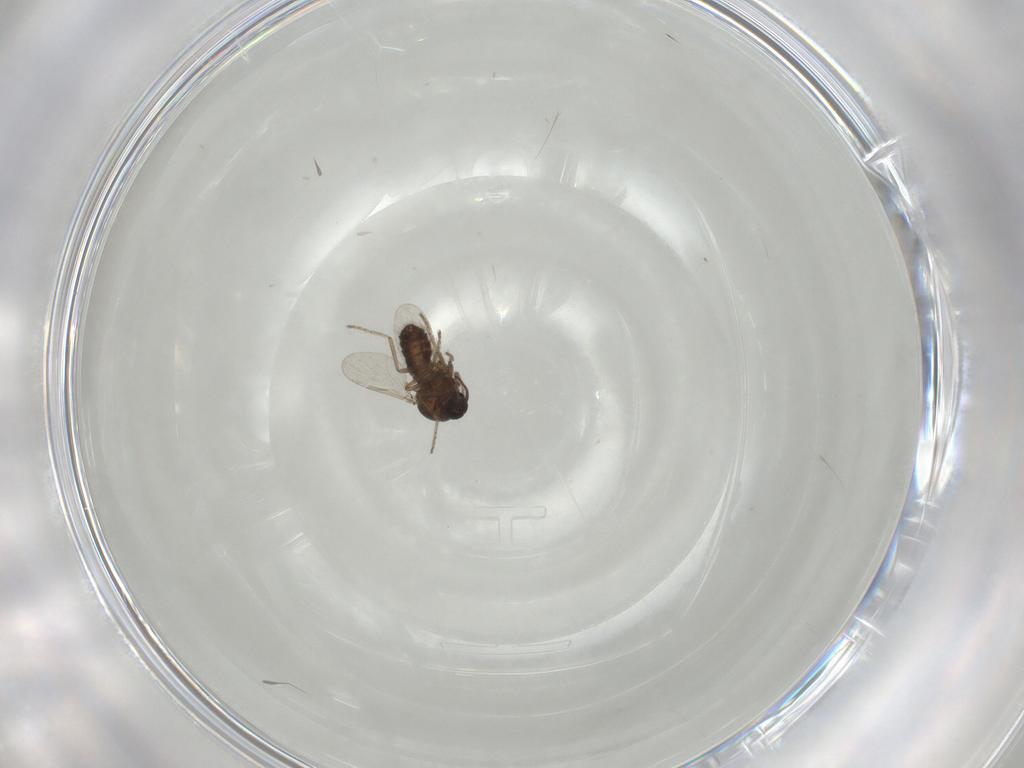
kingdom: Animalia
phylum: Arthropoda
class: Insecta
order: Diptera
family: Ceratopogonidae
